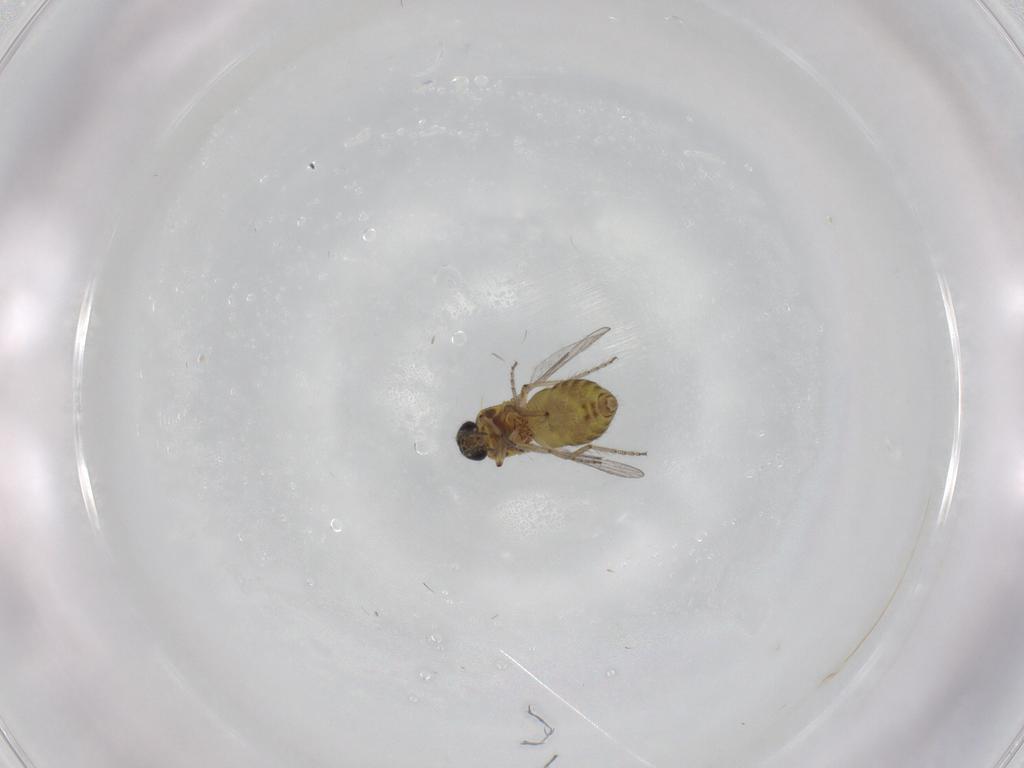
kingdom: Animalia
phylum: Arthropoda
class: Insecta
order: Diptera
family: Ceratopogonidae
